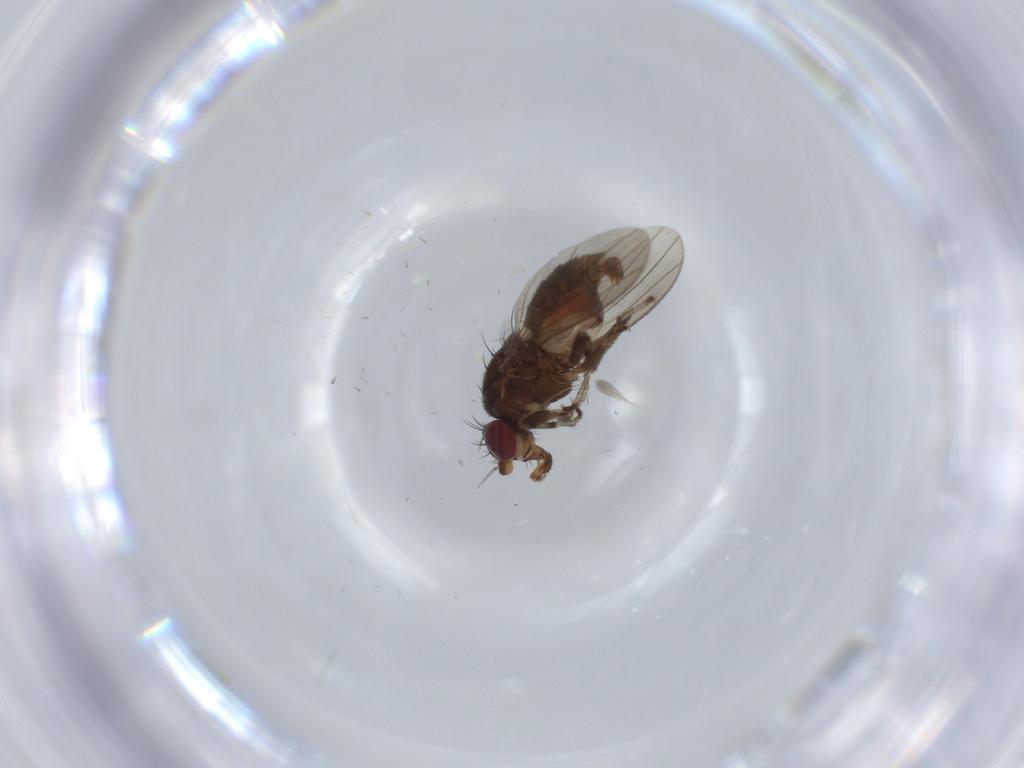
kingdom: Animalia
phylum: Arthropoda
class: Insecta
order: Diptera
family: Heleomyzidae
